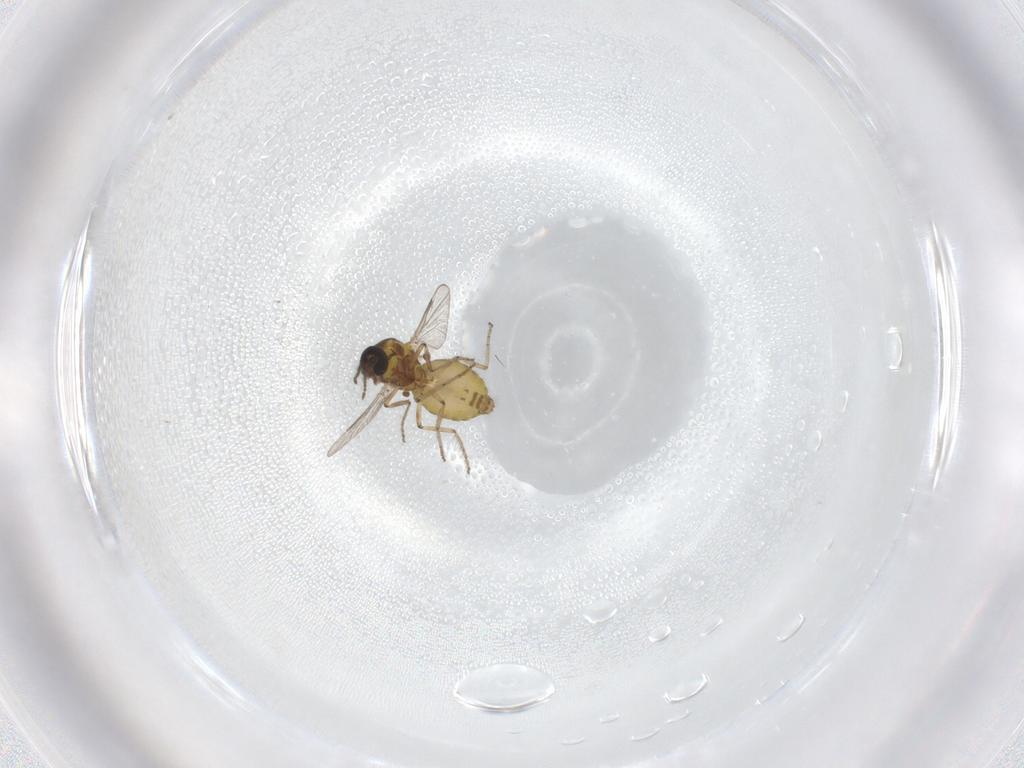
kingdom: Animalia
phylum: Arthropoda
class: Insecta
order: Diptera
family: Ceratopogonidae
